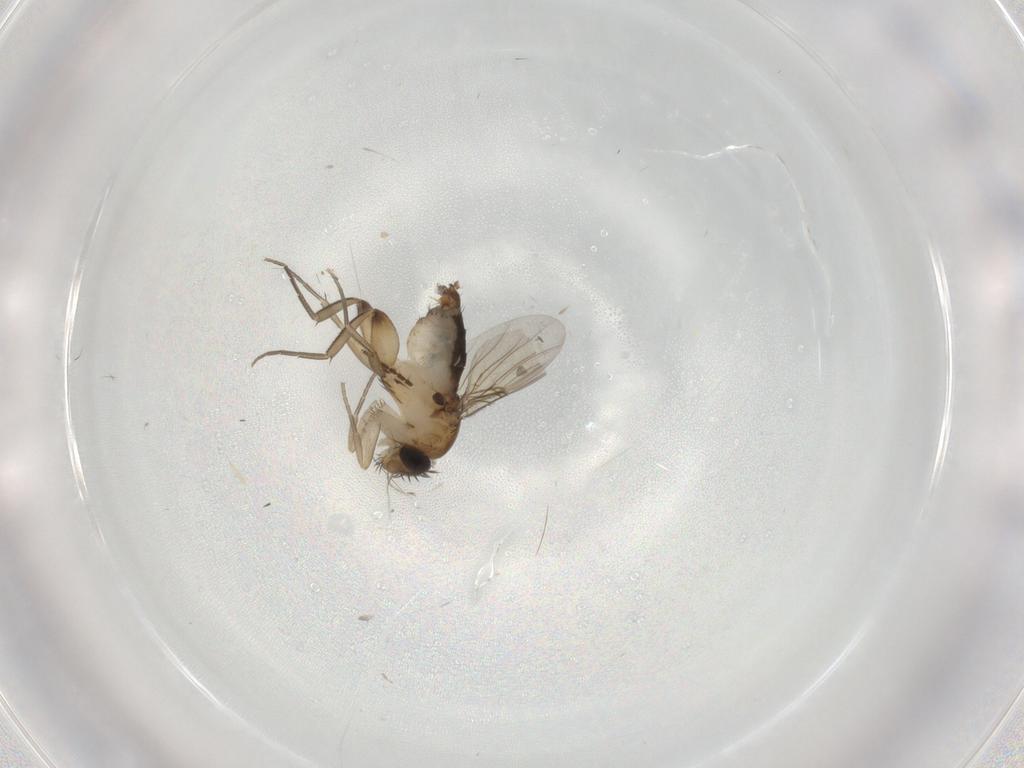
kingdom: Animalia
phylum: Arthropoda
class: Insecta
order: Diptera
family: Phoridae
